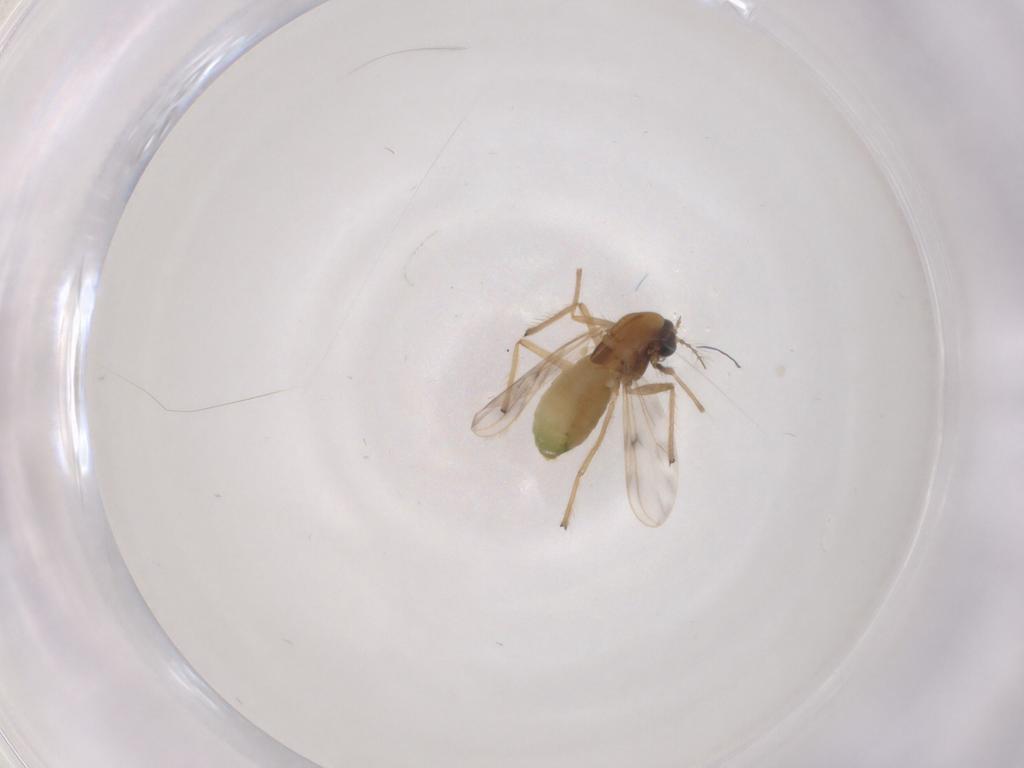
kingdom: Animalia
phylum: Arthropoda
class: Insecta
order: Diptera
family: Chironomidae
